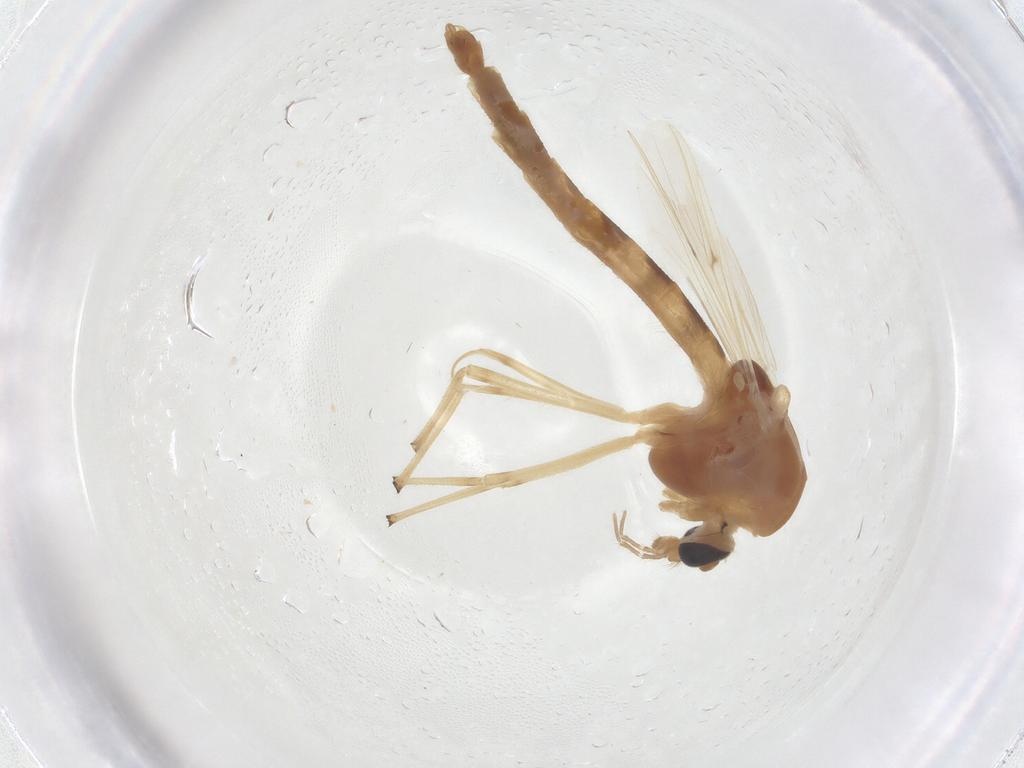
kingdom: Animalia
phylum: Arthropoda
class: Insecta
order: Diptera
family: Chironomidae
